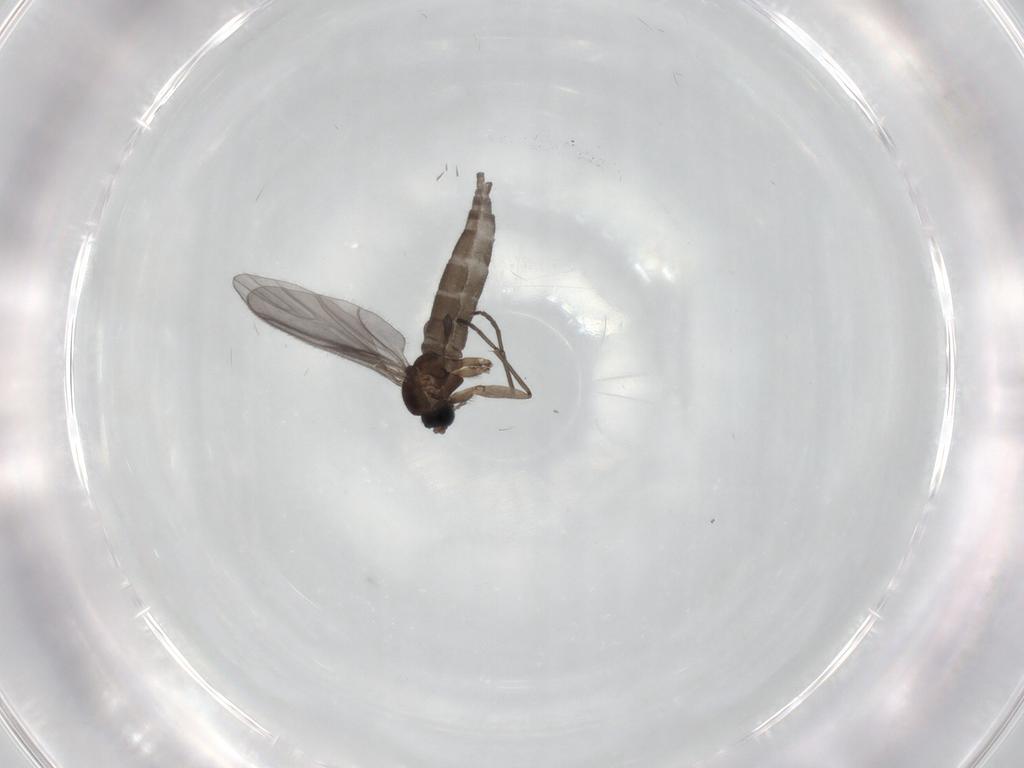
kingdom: Animalia
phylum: Arthropoda
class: Insecta
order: Diptera
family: Sciaridae
